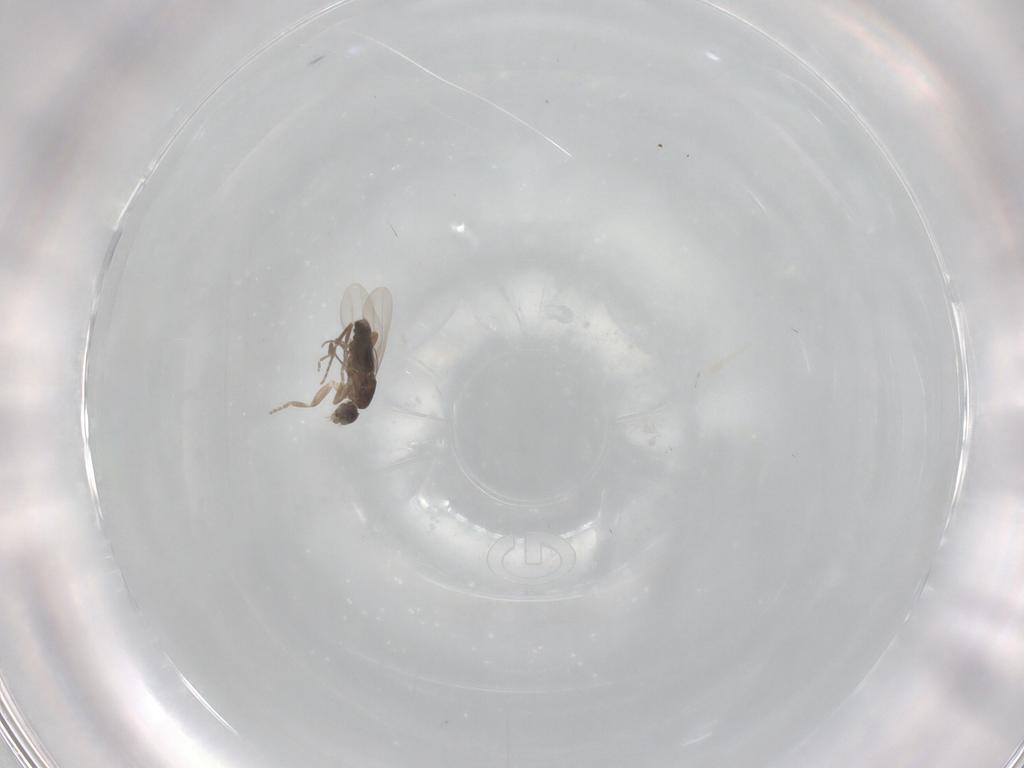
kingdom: Animalia
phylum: Arthropoda
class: Insecta
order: Diptera
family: Phoridae
